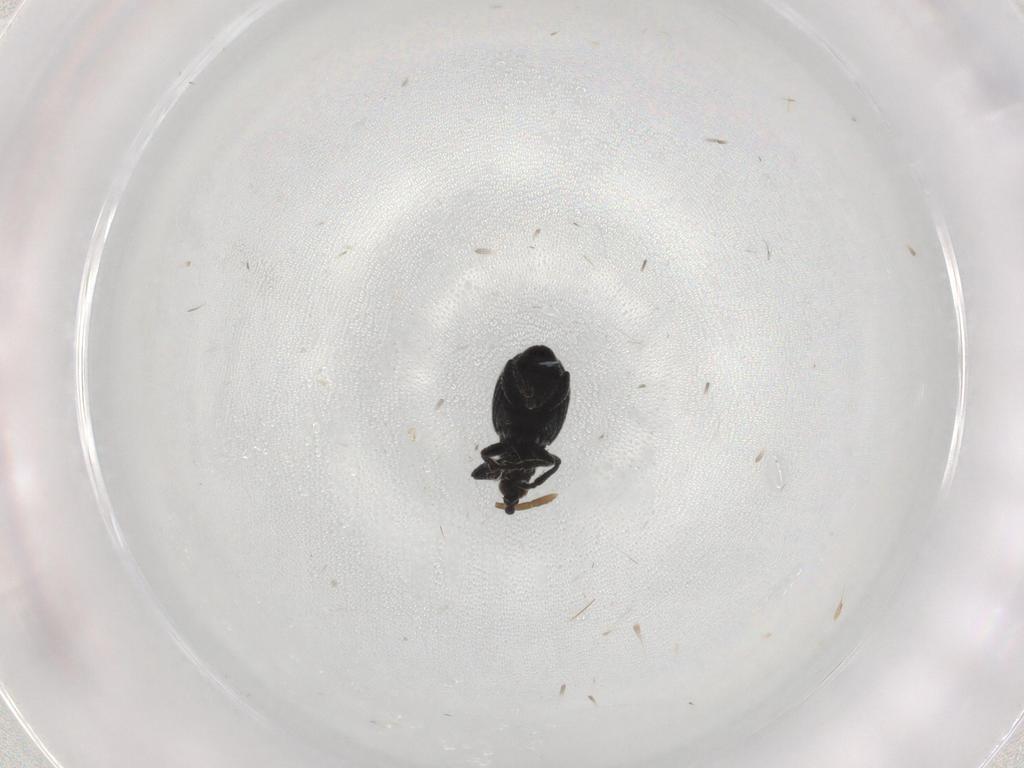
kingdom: Animalia
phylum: Arthropoda
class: Insecta
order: Coleoptera
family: Brentidae
